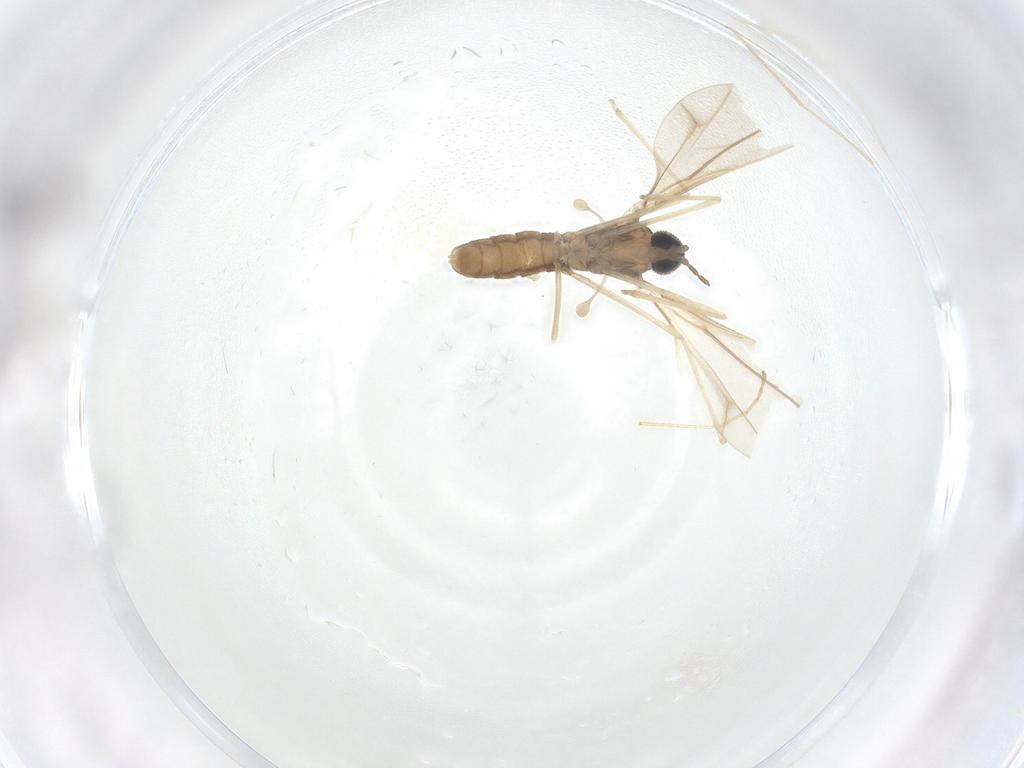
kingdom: Animalia
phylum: Arthropoda
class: Insecta
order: Diptera
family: Cecidomyiidae
